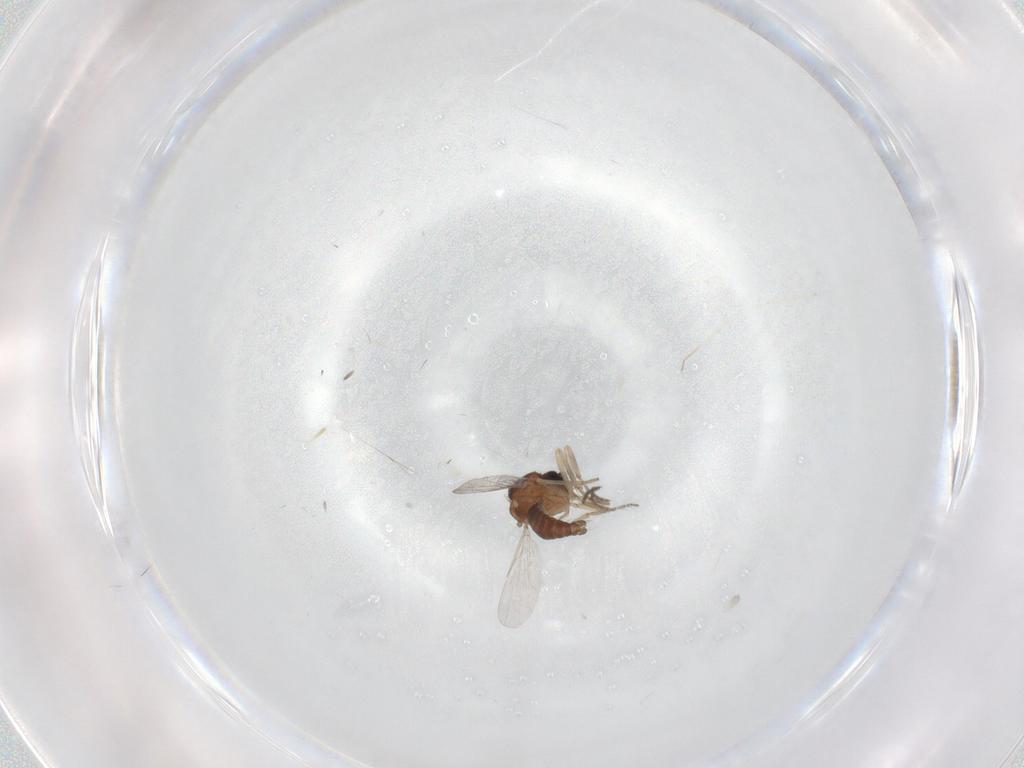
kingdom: Animalia
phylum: Arthropoda
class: Insecta
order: Diptera
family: Ceratopogonidae
